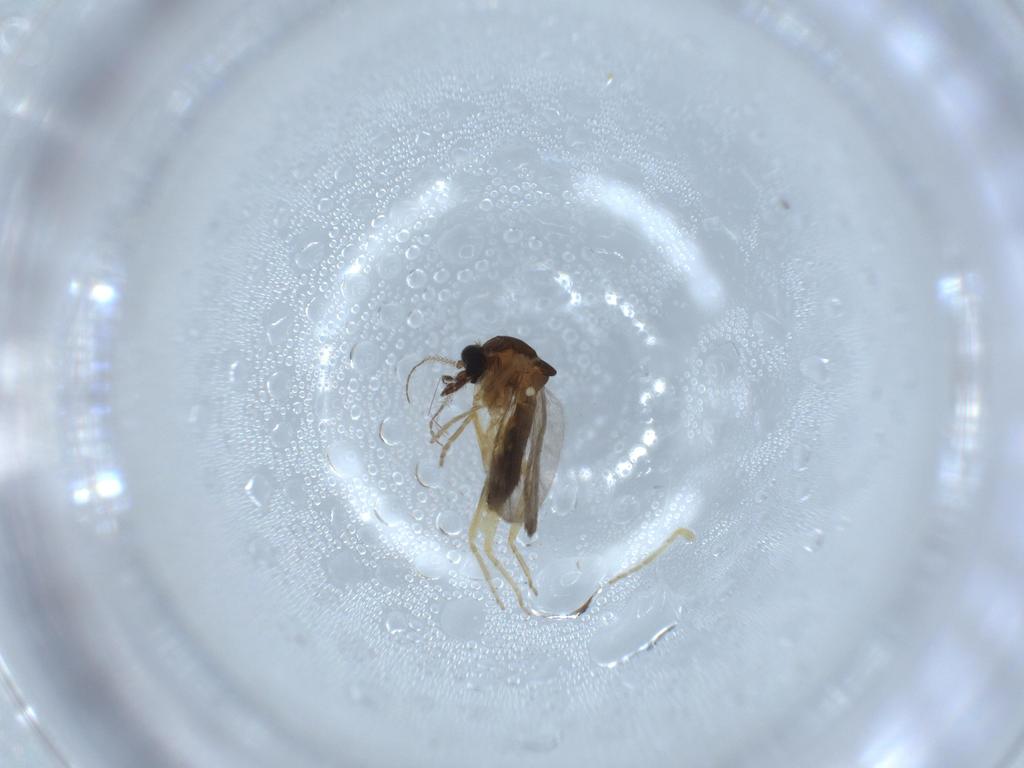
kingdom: Animalia
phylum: Arthropoda
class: Insecta
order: Diptera
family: Ceratopogonidae
